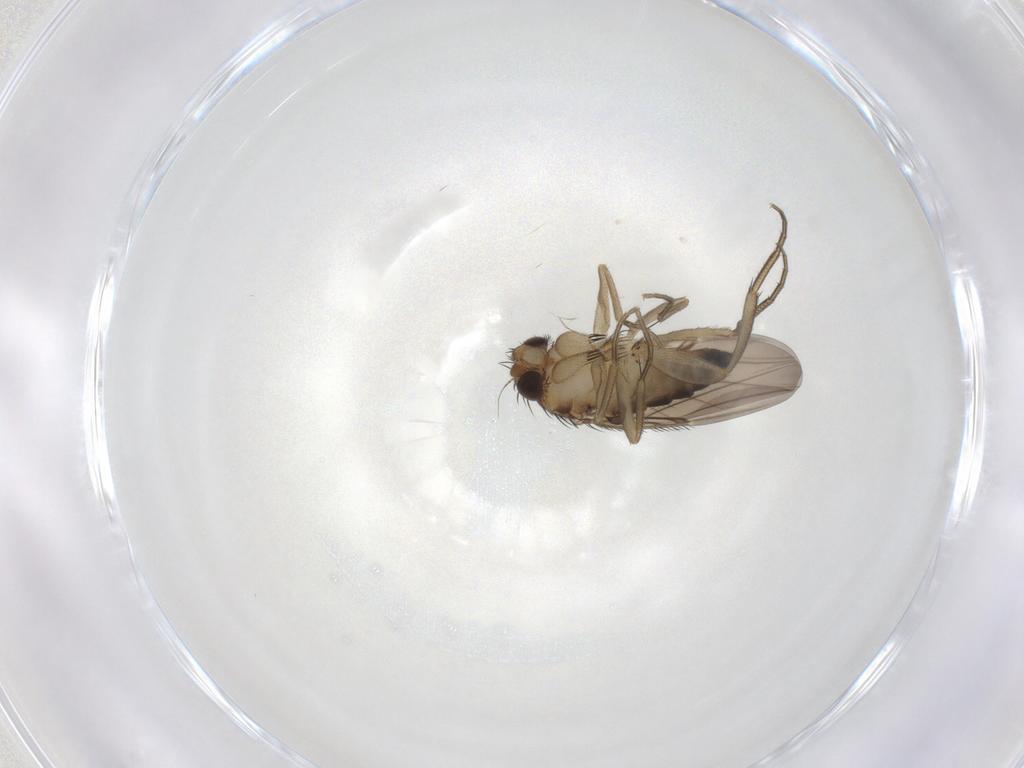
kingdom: Animalia
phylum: Arthropoda
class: Insecta
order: Diptera
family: Phoridae
